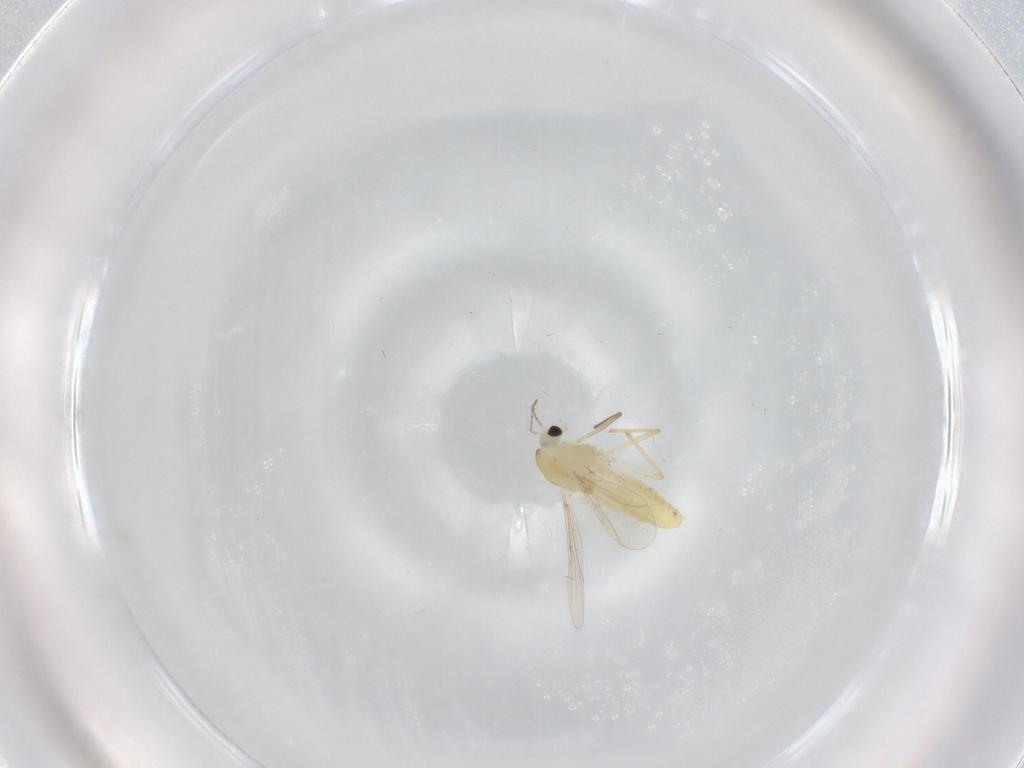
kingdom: Animalia
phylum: Arthropoda
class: Insecta
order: Diptera
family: Chironomidae
